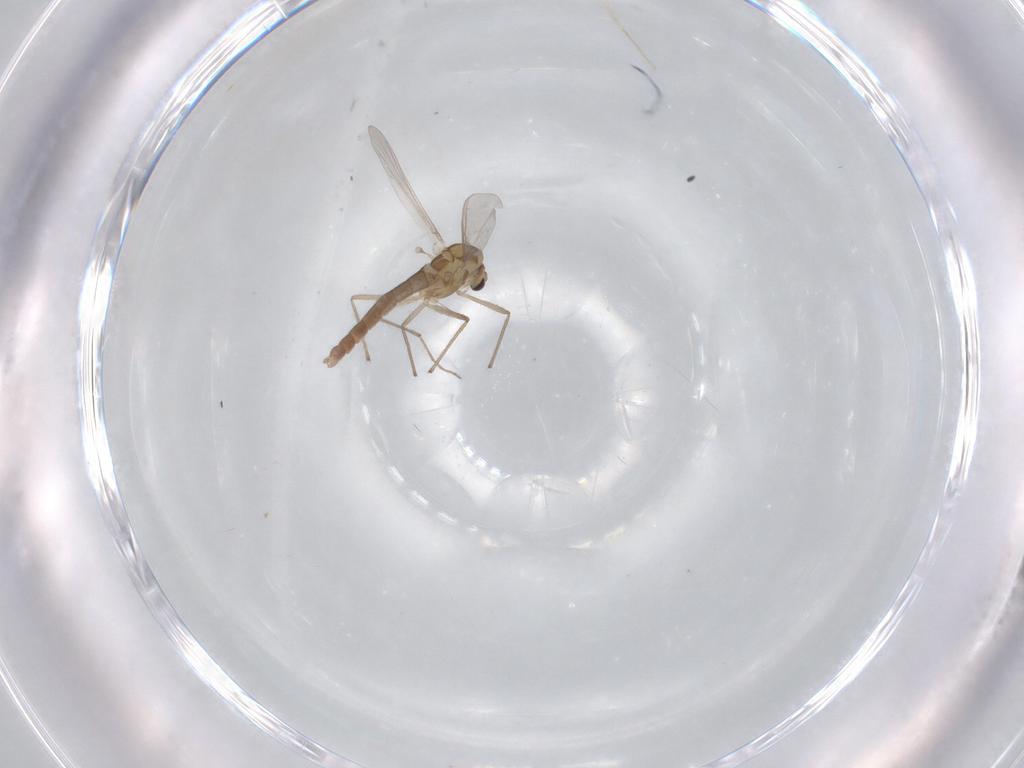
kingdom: Animalia
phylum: Arthropoda
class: Insecta
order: Diptera
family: Chironomidae
